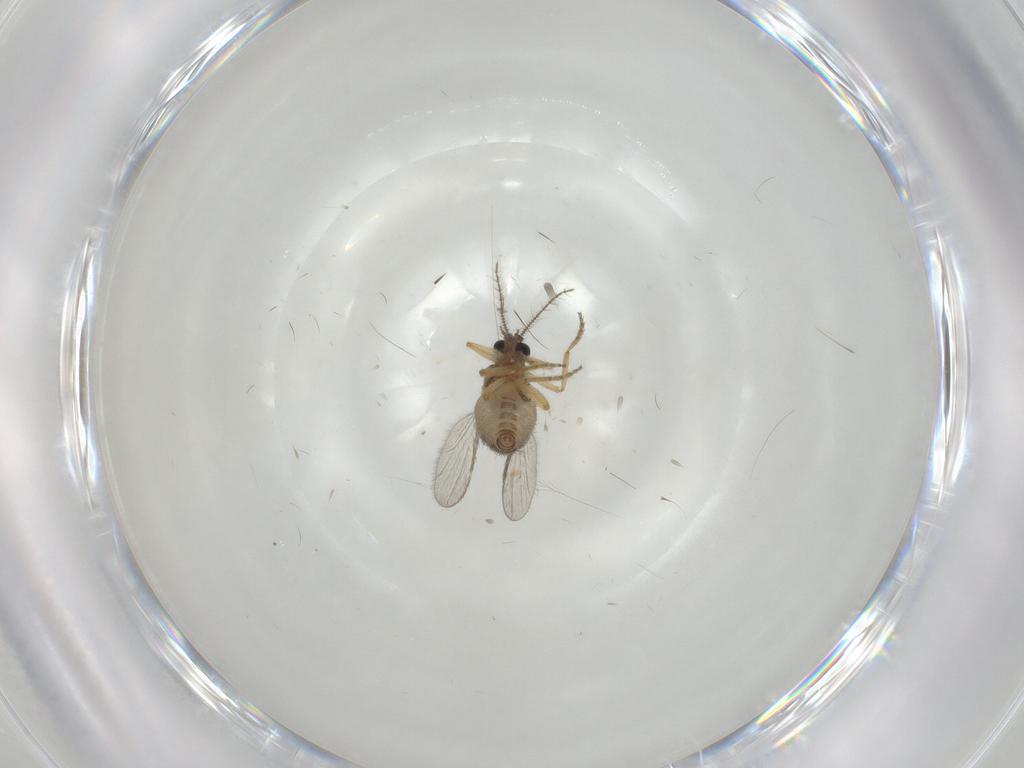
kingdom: Animalia
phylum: Arthropoda
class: Insecta
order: Diptera
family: Ceratopogonidae
